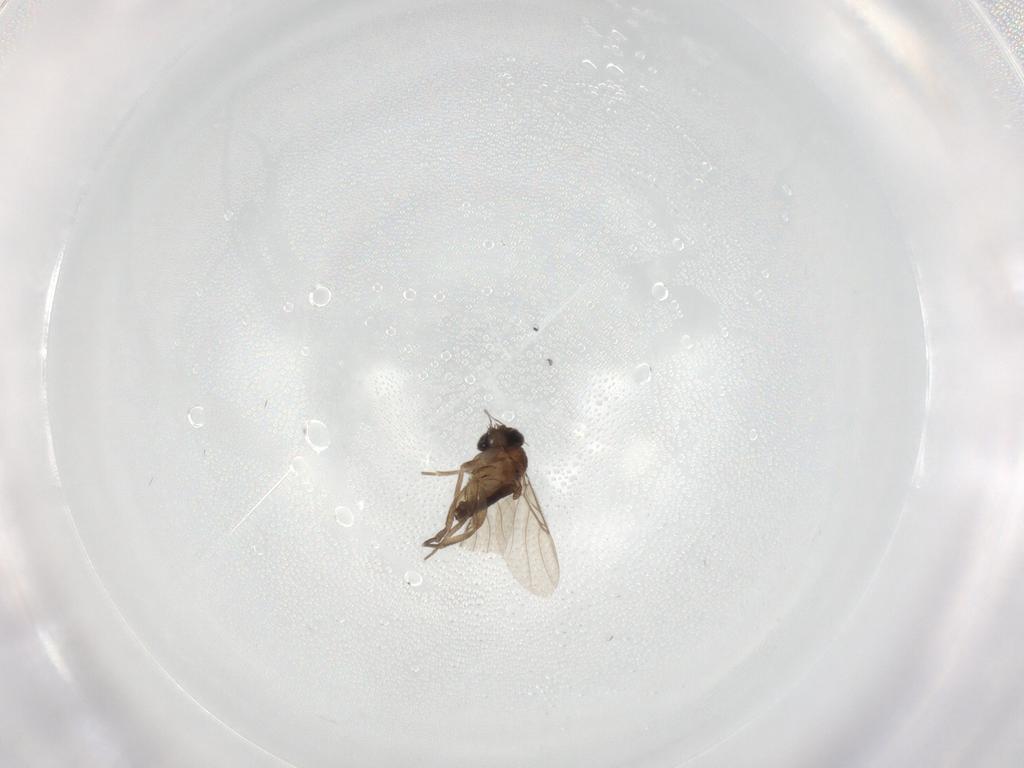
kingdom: Animalia
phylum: Arthropoda
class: Insecta
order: Diptera
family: Phoridae
